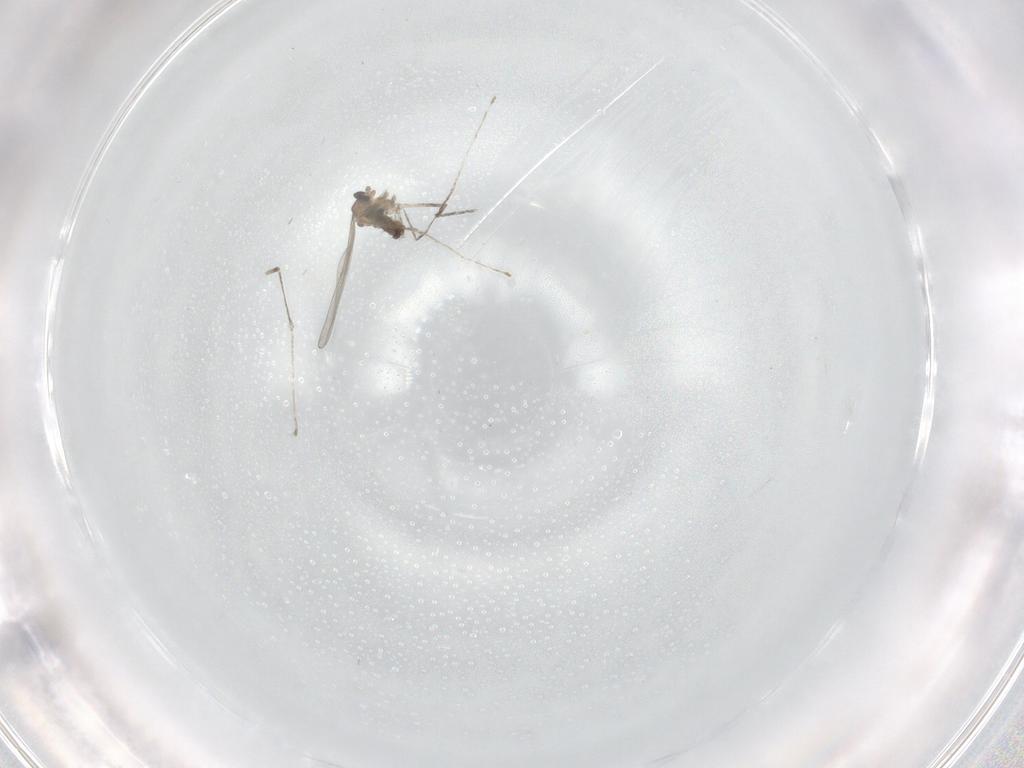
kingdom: Animalia
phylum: Arthropoda
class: Insecta
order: Diptera
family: Cecidomyiidae
